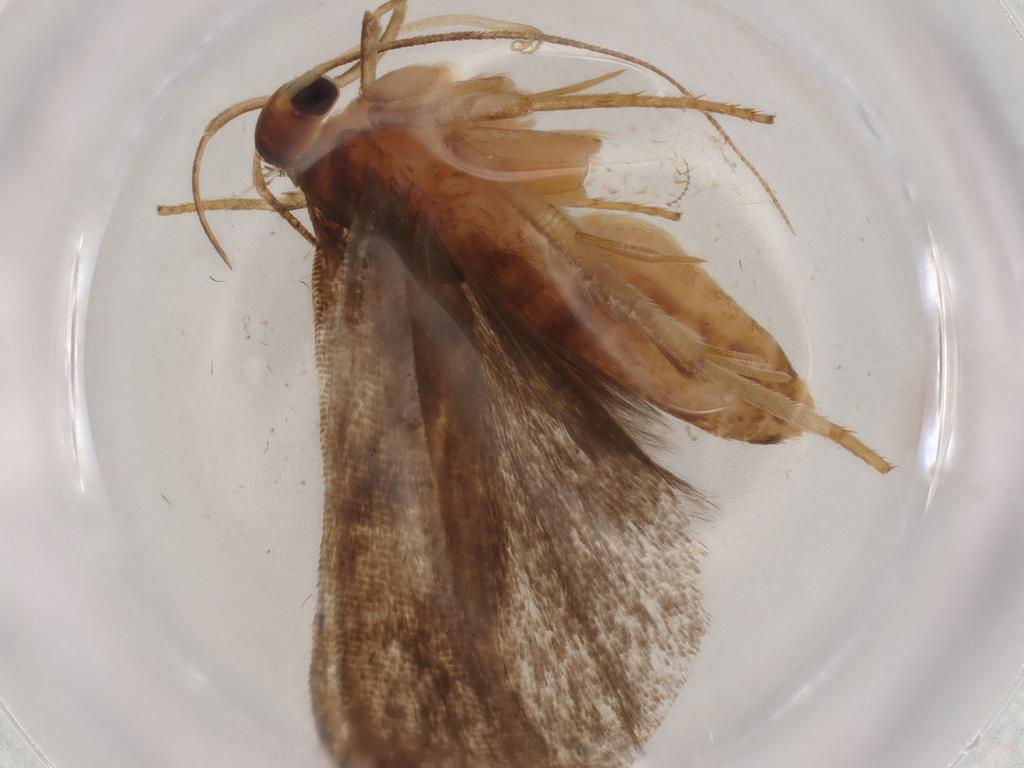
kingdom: Animalia
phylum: Arthropoda
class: Insecta
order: Lepidoptera
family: Nepticulidae
